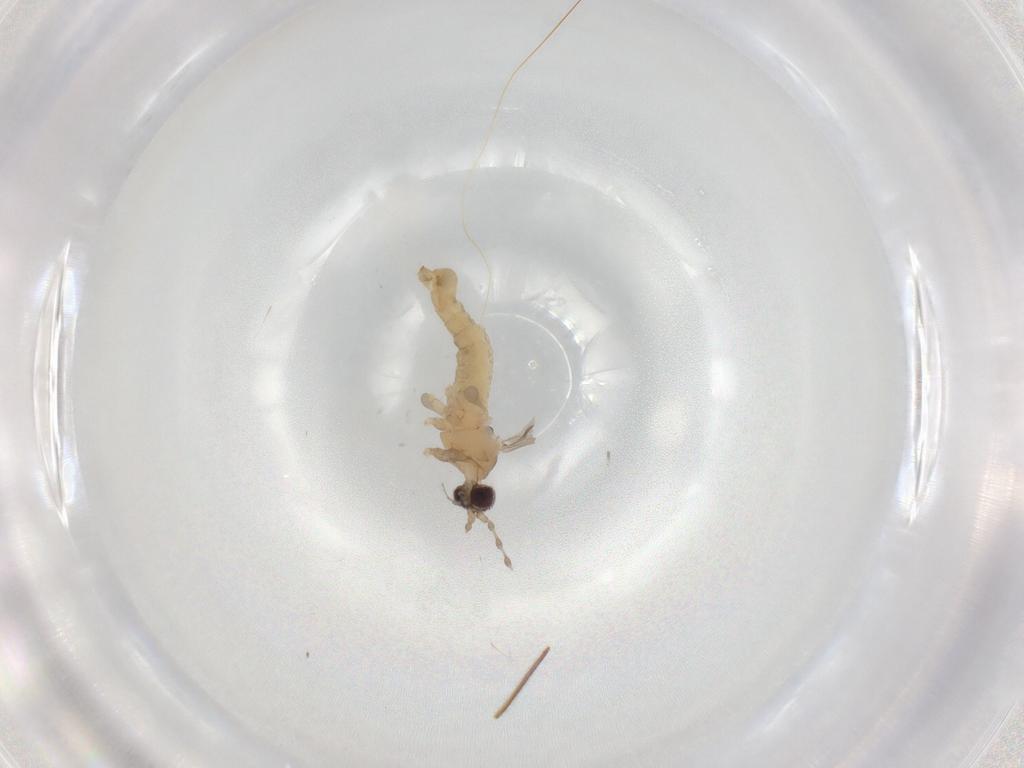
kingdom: Animalia
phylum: Arthropoda
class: Insecta
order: Diptera
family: Cecidomyiidae
